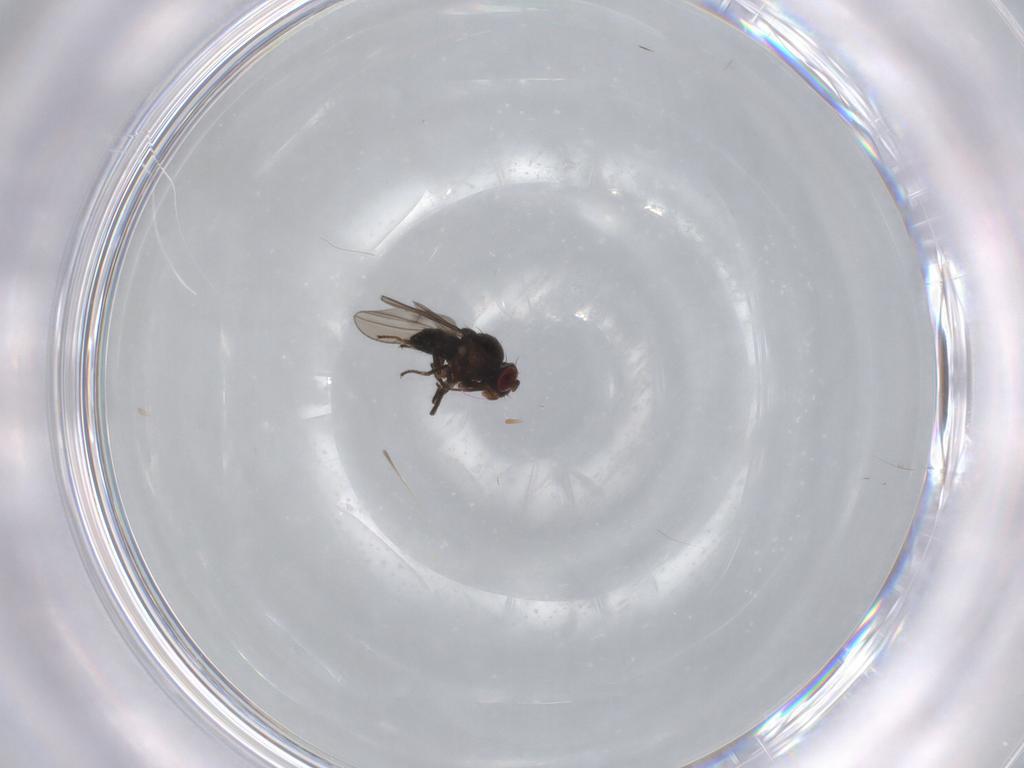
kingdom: Animalia
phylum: Arthropoda
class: Insecta
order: Diptera
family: Ephydridae
